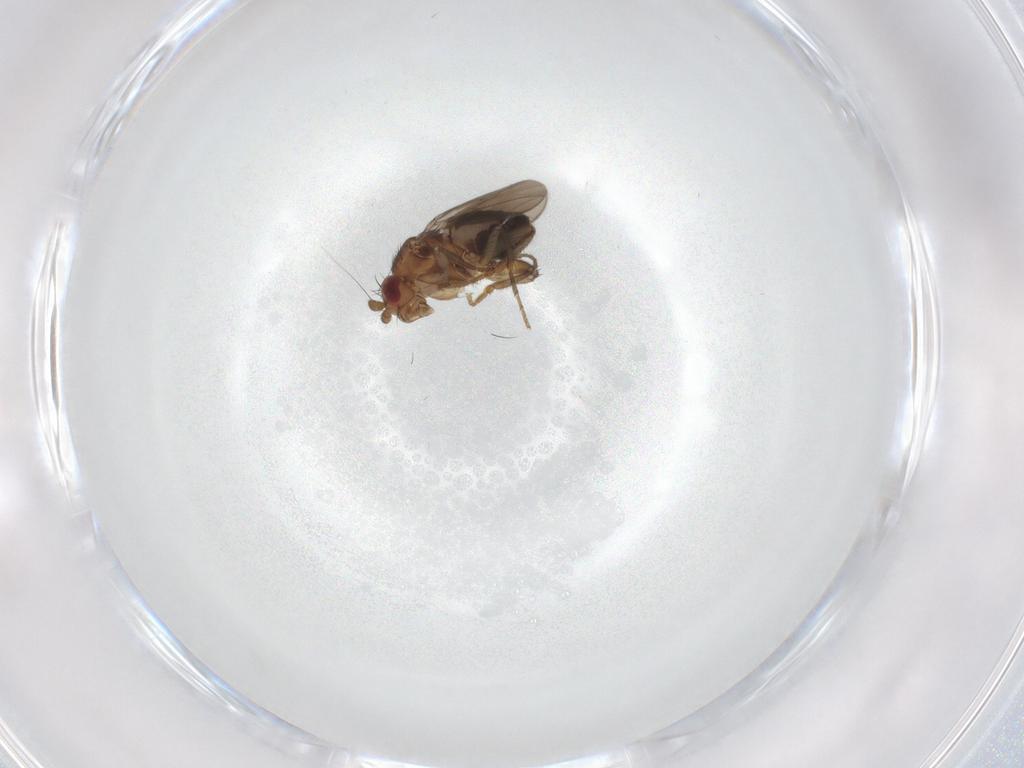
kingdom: Animalia
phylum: Arthropoda
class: Insecta
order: Diptera
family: Sphaeroceridae
